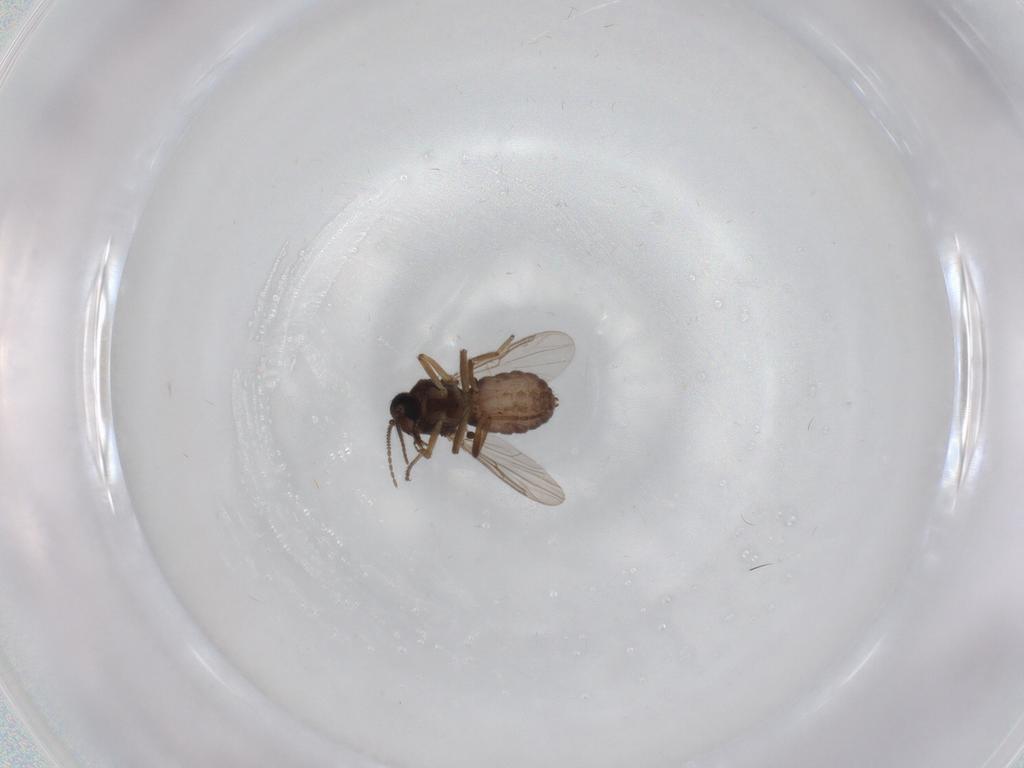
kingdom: Animalia
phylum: Arthropoda
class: Insecta
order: Diptera
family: Ceratopogonidae
